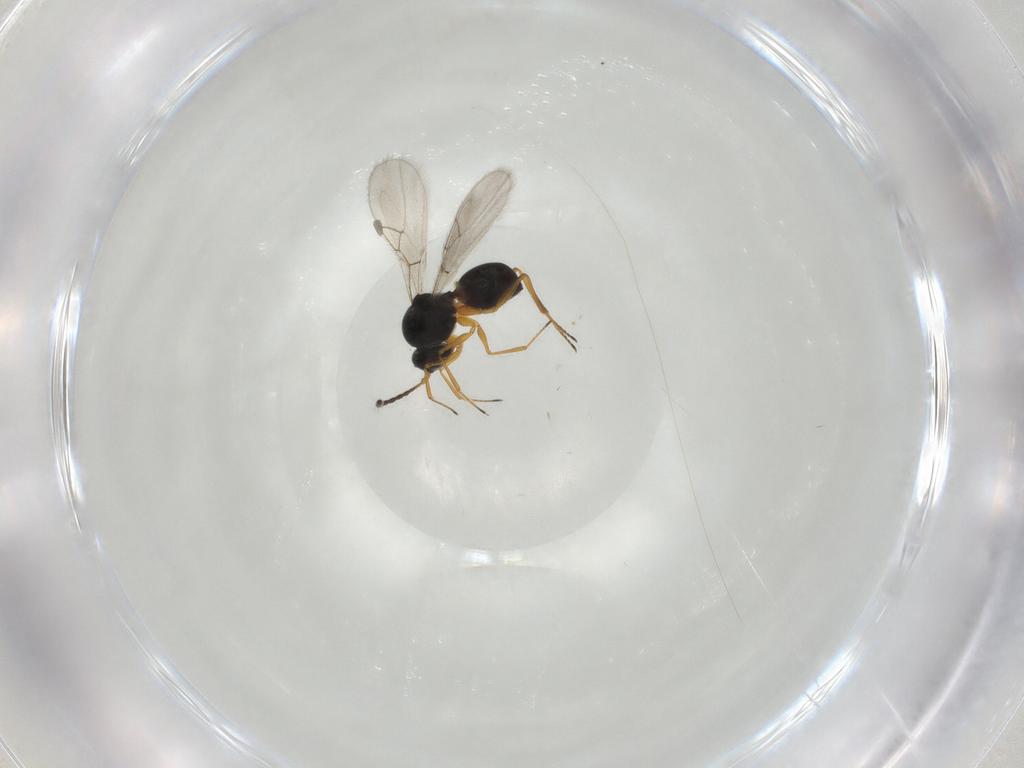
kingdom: Animalia
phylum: Arthropoda
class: Insecta
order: Hymenoptera
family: Figitidae
